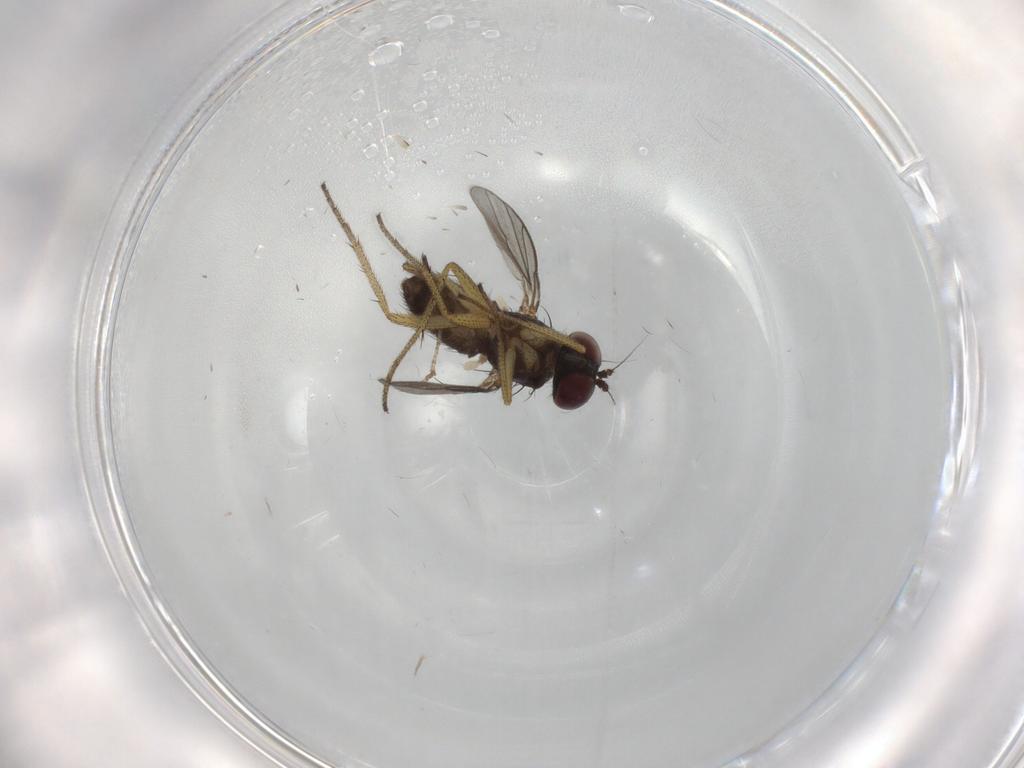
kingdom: Animalia
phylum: Arthropoda
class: Insecta
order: Diptera
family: Dolichopodidae
